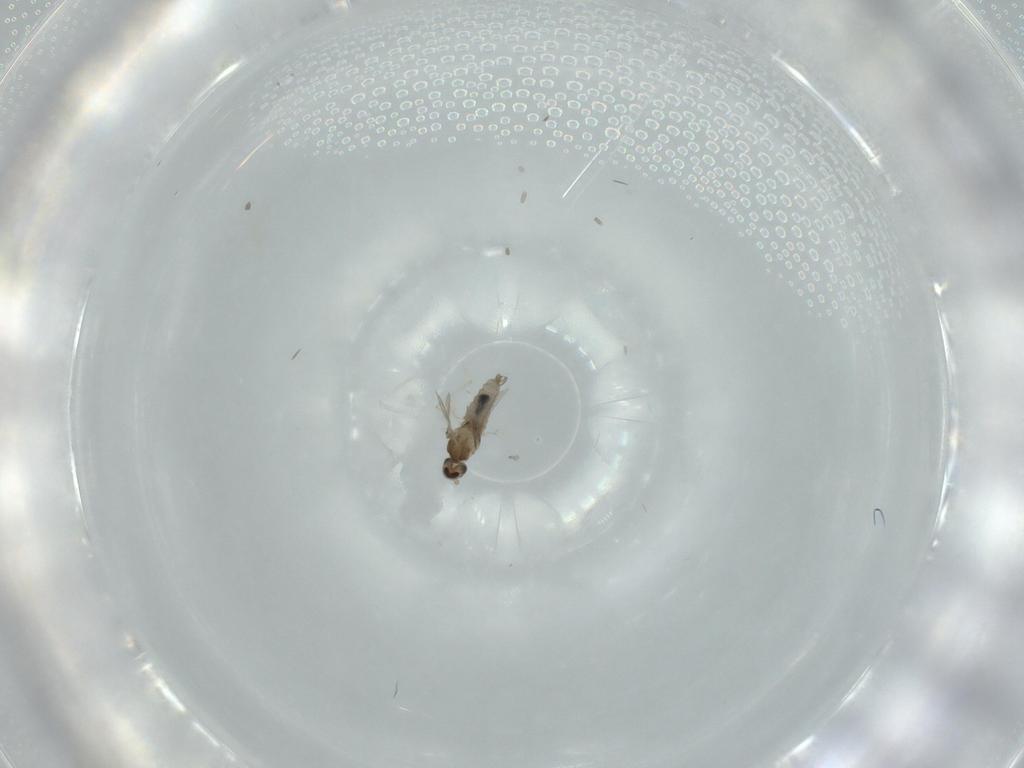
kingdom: Animalia
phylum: Arthropoda
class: Insecta
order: Diptera
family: Cecidomyiidae
